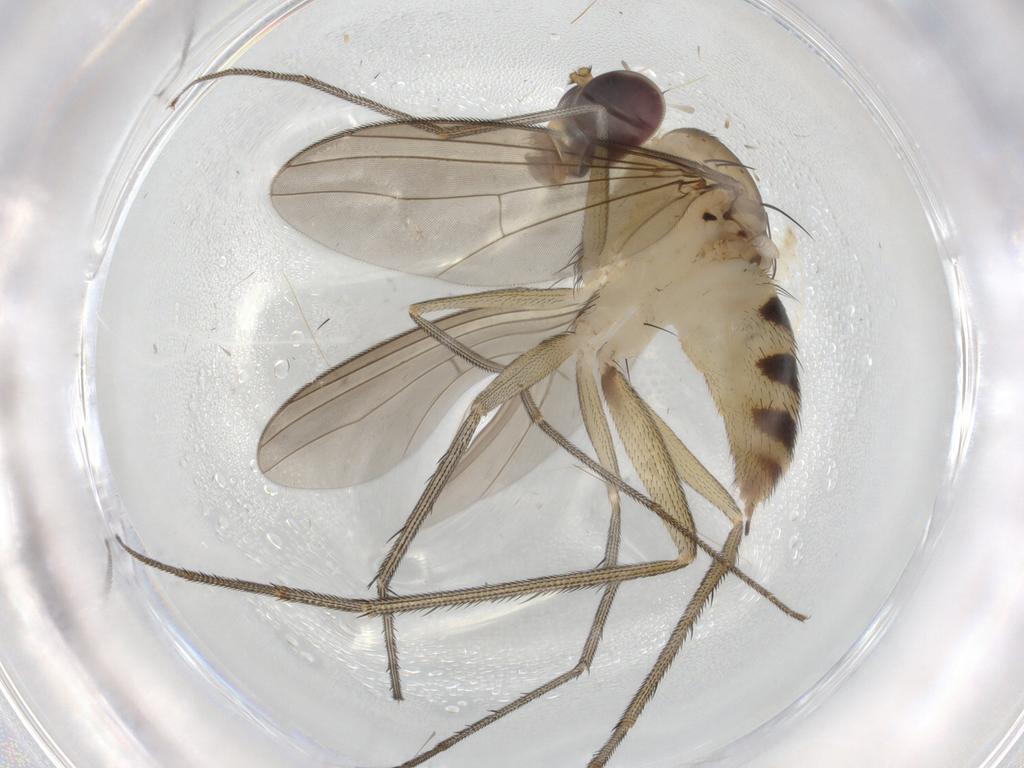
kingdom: Animalia
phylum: Arthropoda
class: Insecta
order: Diptera
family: Dolichopodidae
